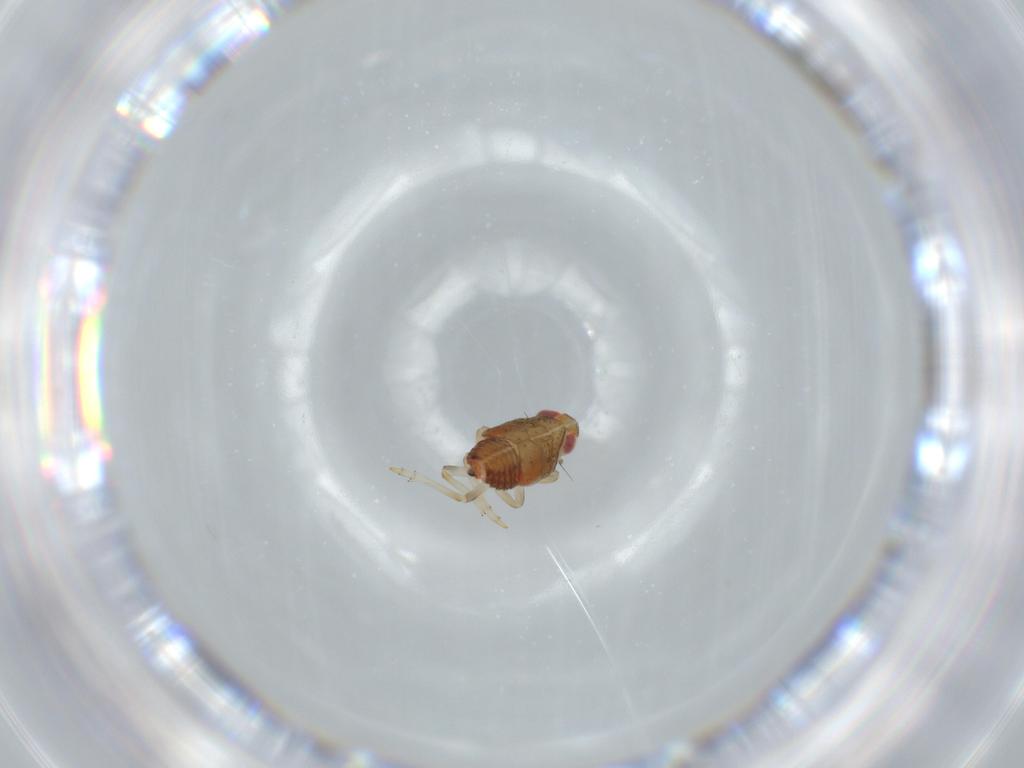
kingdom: Animalia
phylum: Arthropoda
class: Insecta
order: Hemiptera
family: Issidae
